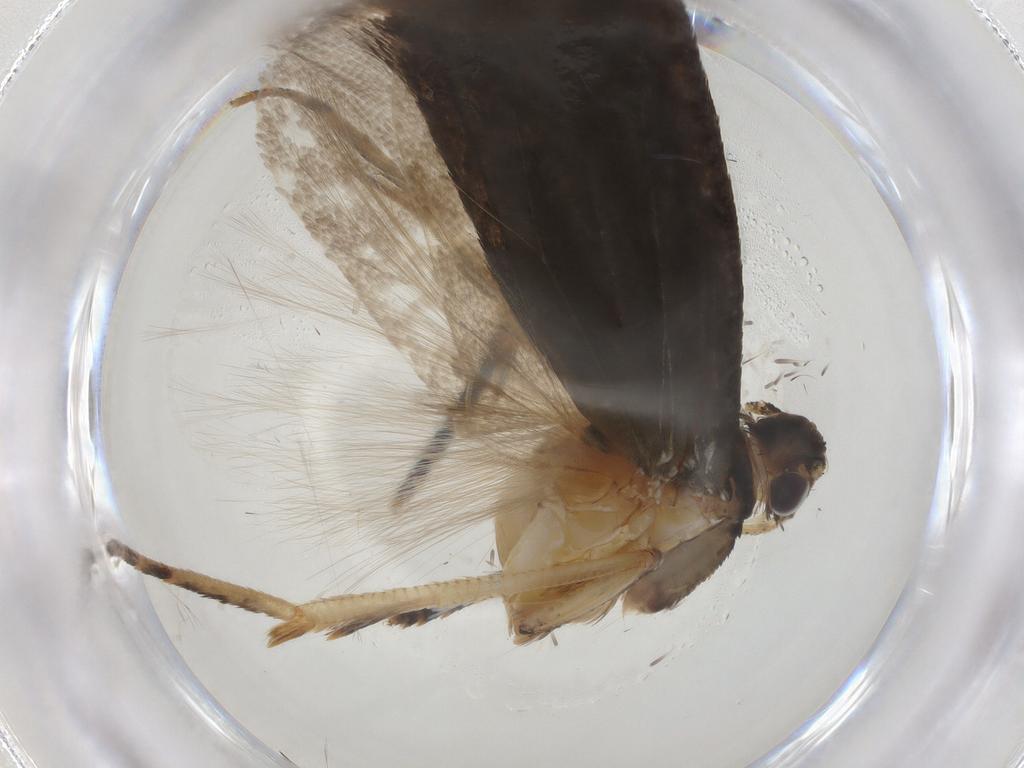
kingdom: Animalia
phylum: Arthropoda
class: Insecta
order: Lepidoptera
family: Gelechiidae
